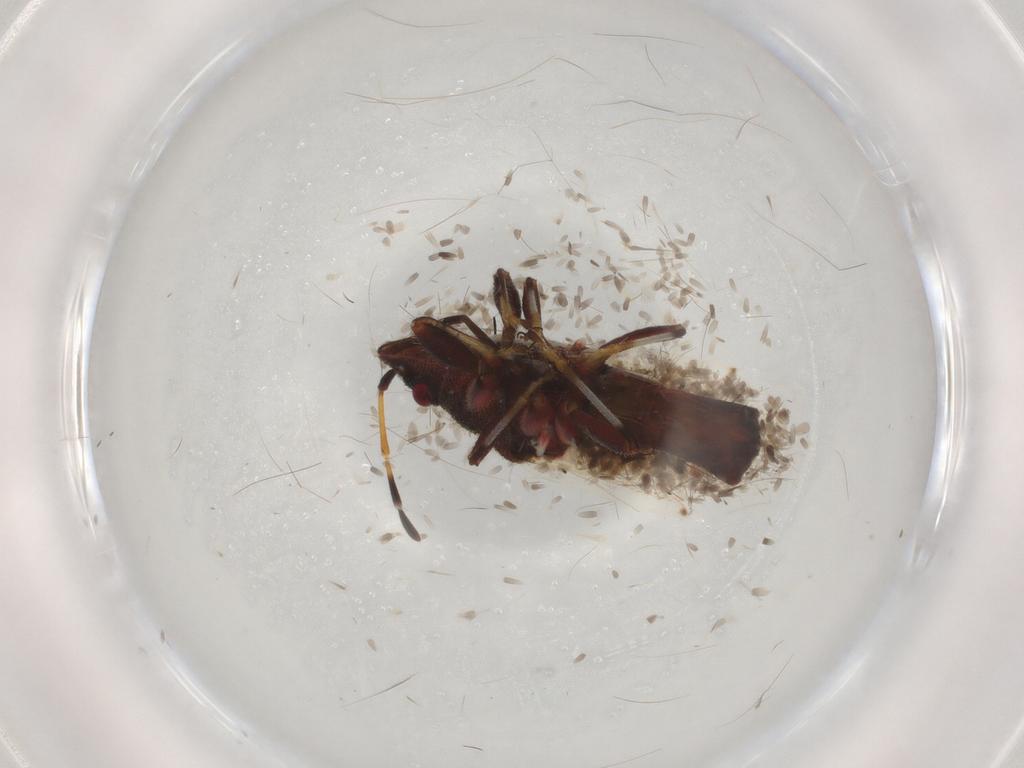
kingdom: Animalia
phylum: Arthropoda
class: Insecta
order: Hemiptera
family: Oxycarenidae
